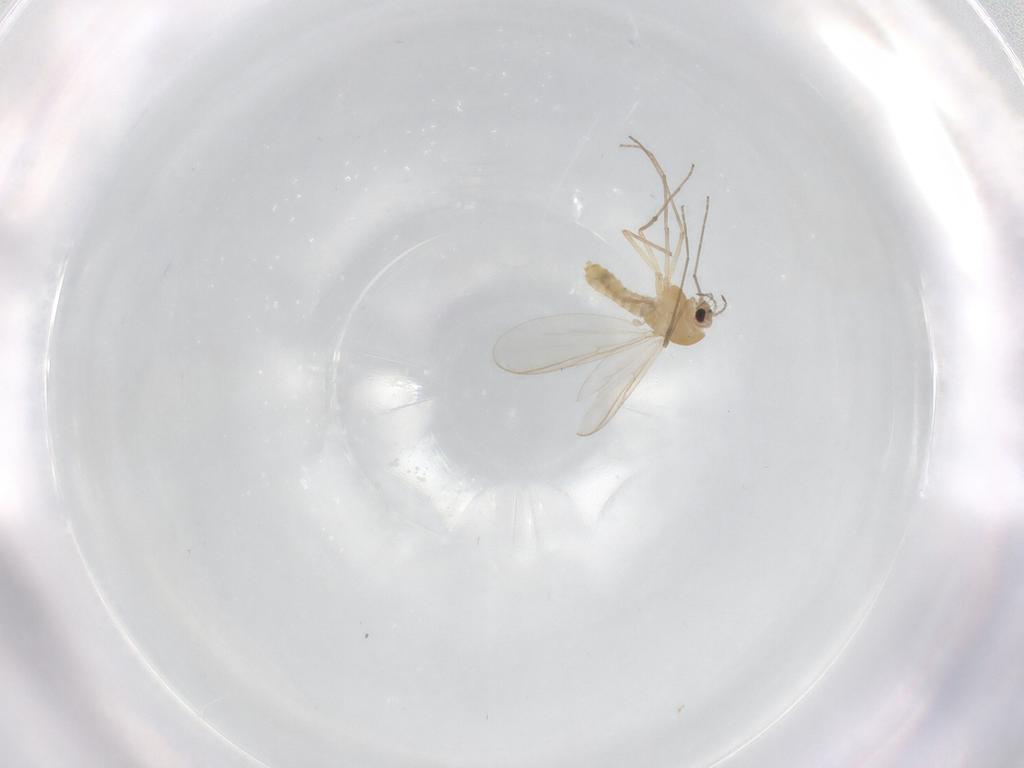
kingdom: Animalia
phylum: Arthropoda
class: Insecta
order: Diptera
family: Chironomidae
